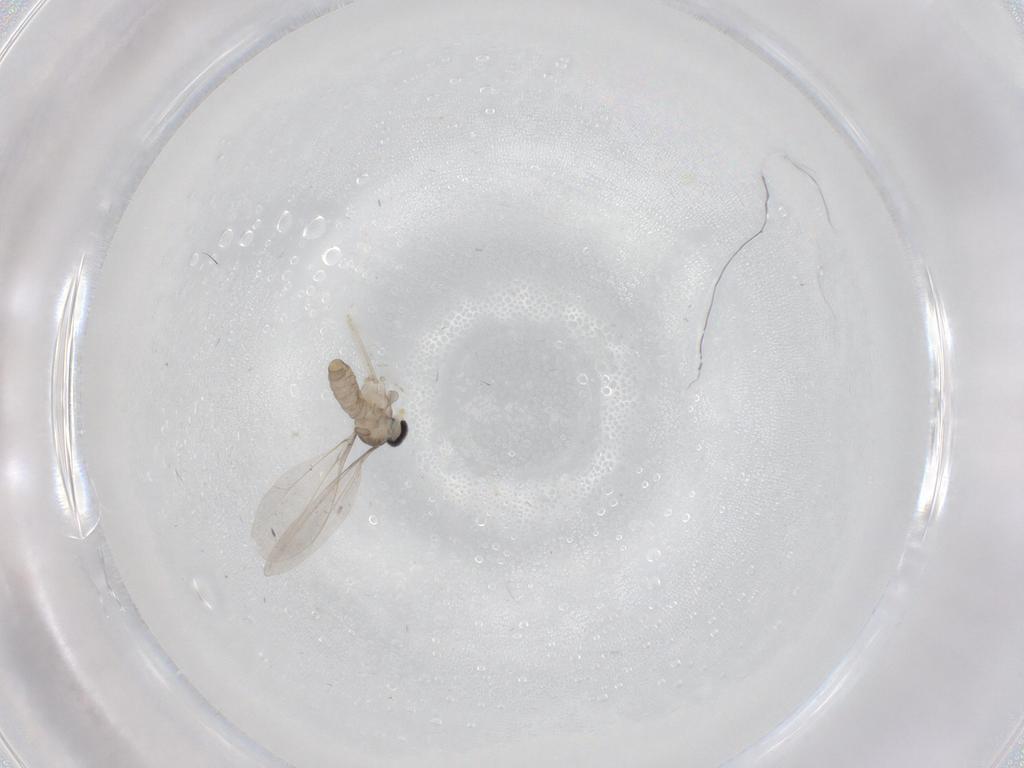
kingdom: Animalia
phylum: Arthropoda
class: Insecta
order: Diptera
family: Cecidomyiidae
